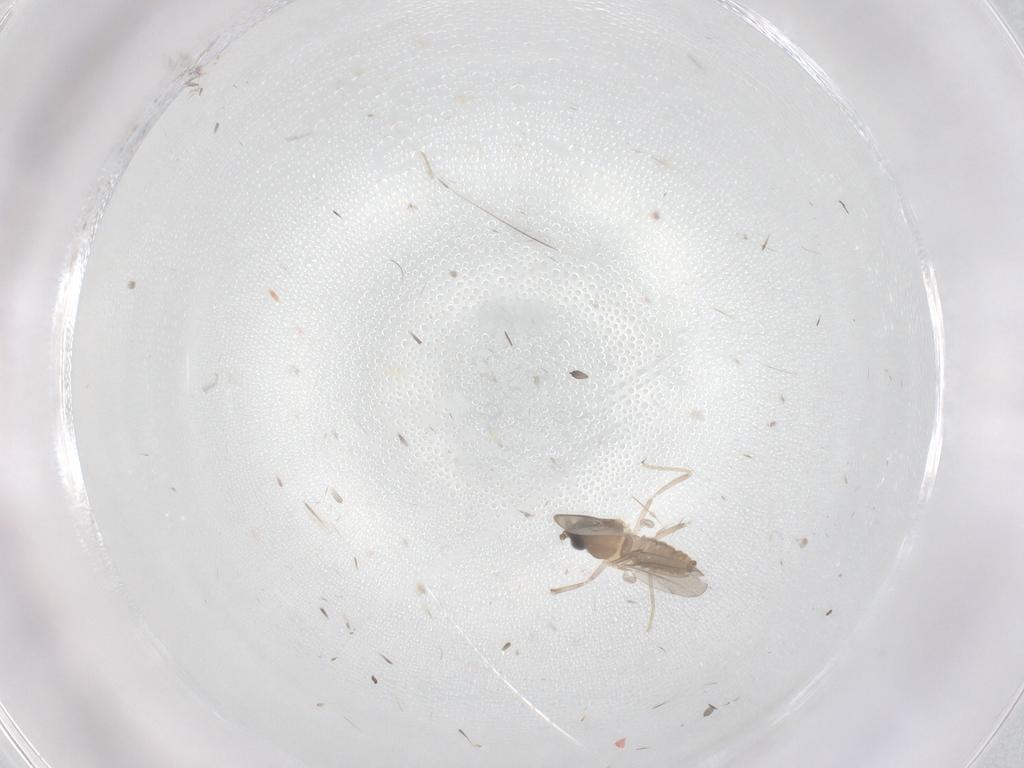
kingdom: Animalia
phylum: Arthropoda
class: Insecta
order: Diptera
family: Cecidomyiidae
